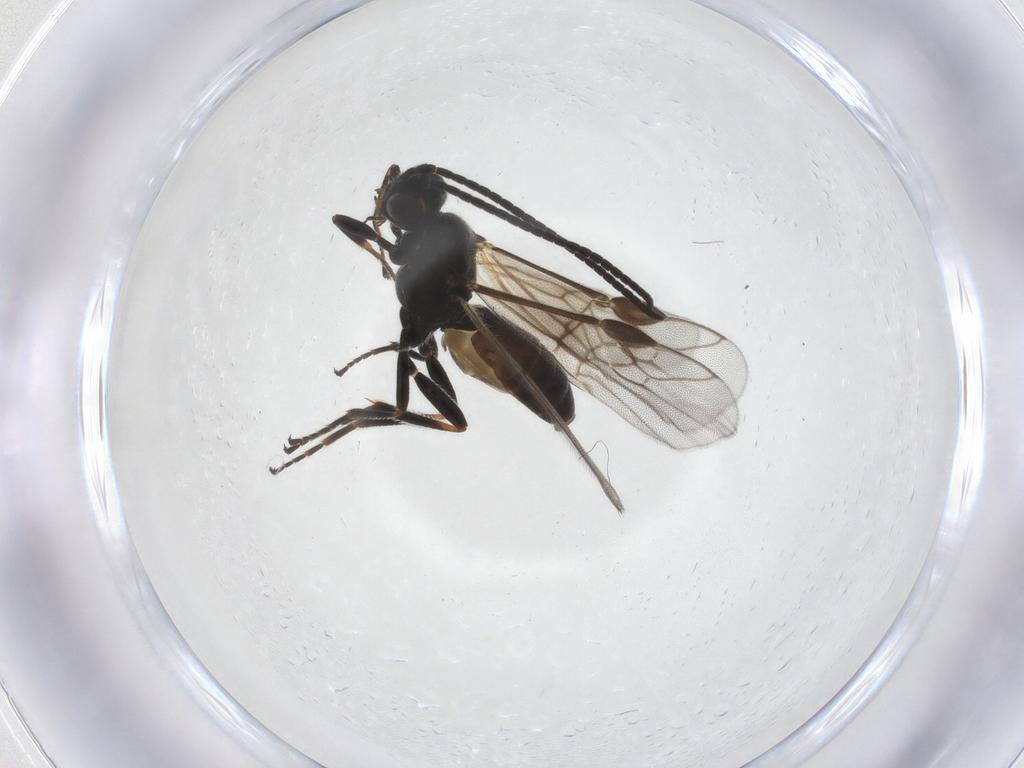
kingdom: Animalia
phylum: Arthropoda
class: Insecta
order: Hymenoptera
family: Braconidae
